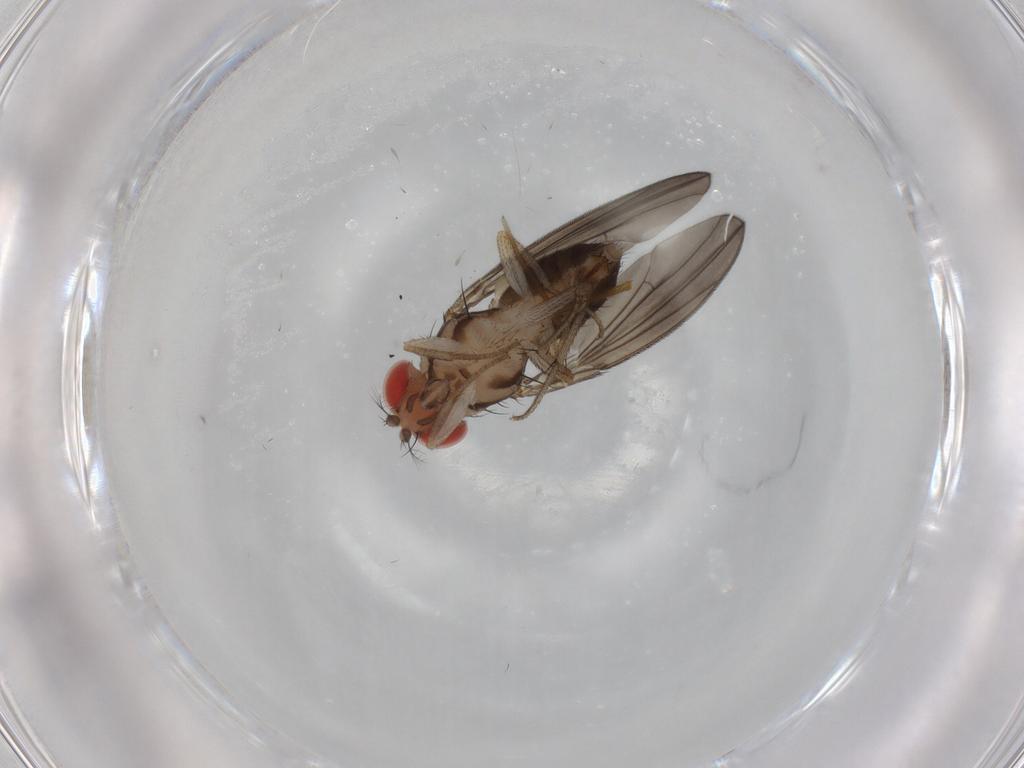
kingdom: Animalia
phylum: Arthropoda
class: Insecta
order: Diptera
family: Drosophilidae
